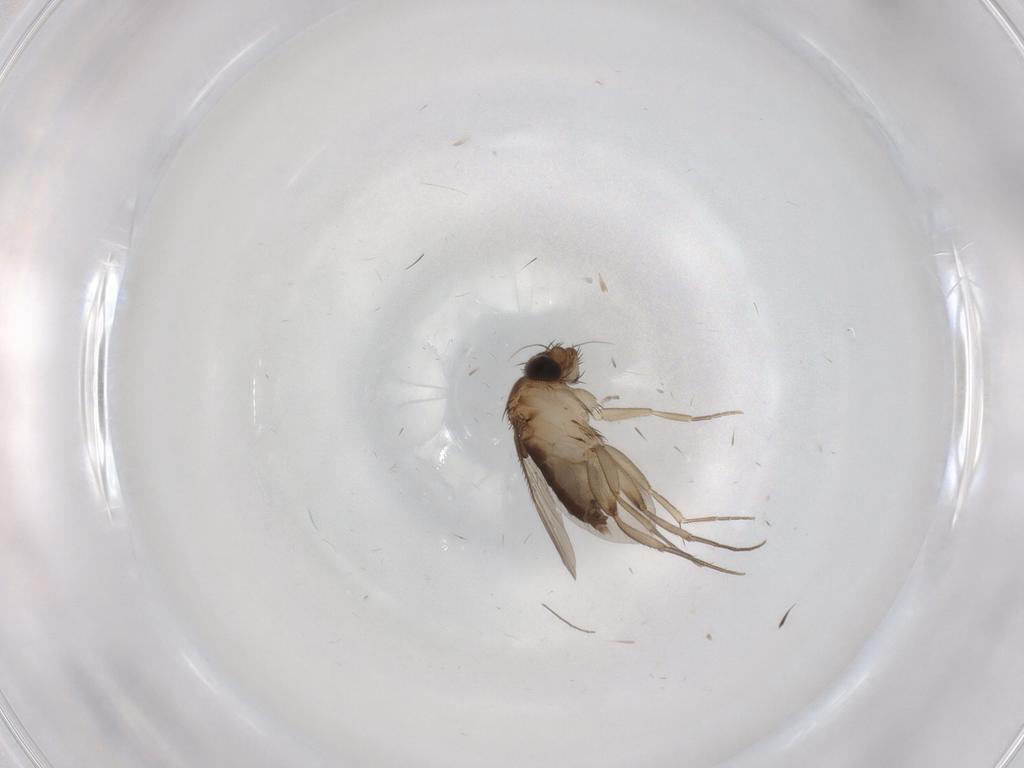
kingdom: Animalia
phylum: Arthropoda
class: Insecta
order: Diptera
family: Phoridae
